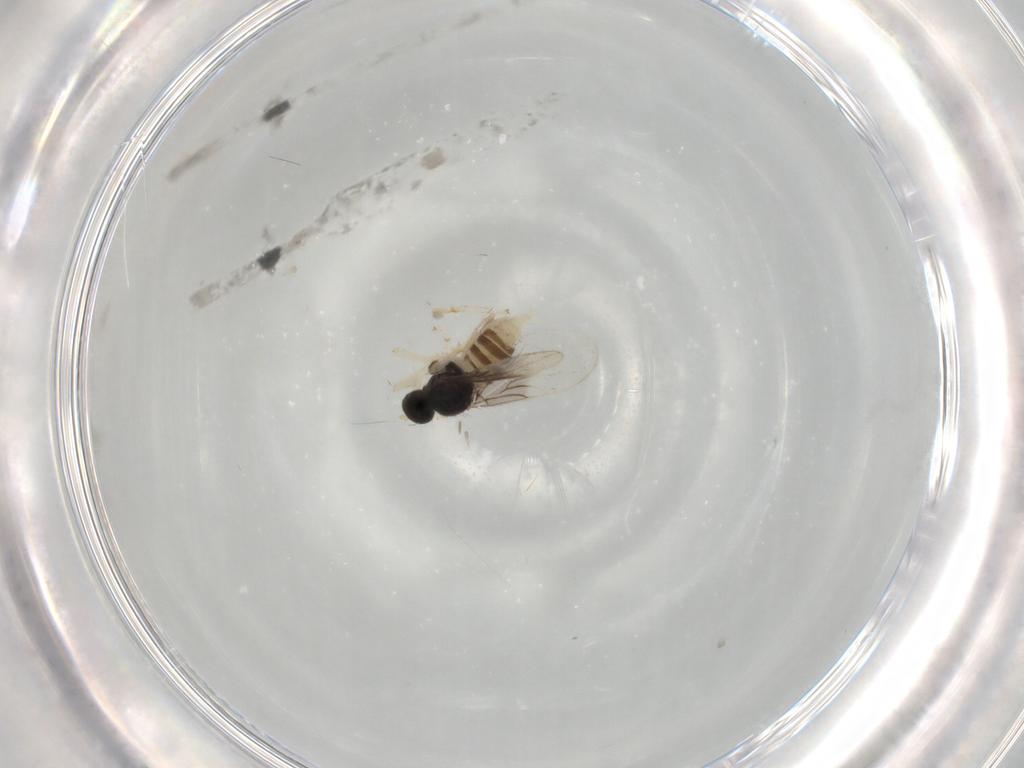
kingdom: Animalia
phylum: Arthropoda
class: Insecta
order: Diptera
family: Hybotidae
